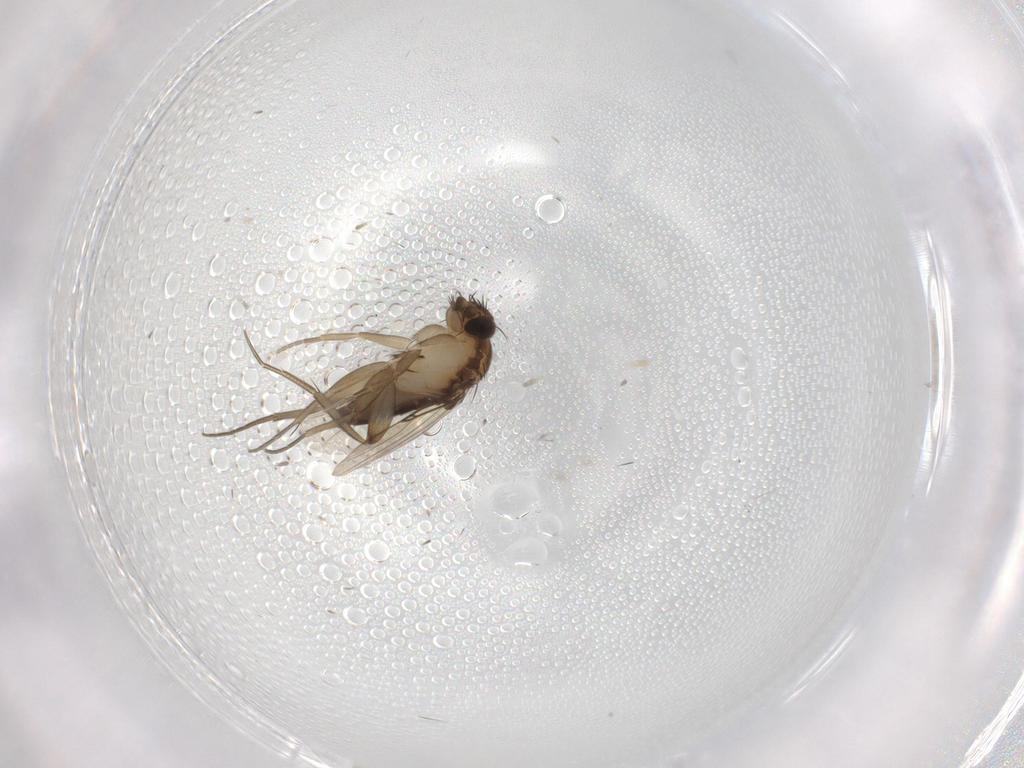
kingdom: Animalia
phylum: Arthropoda
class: Insecta
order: Diptera
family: Phoridae
